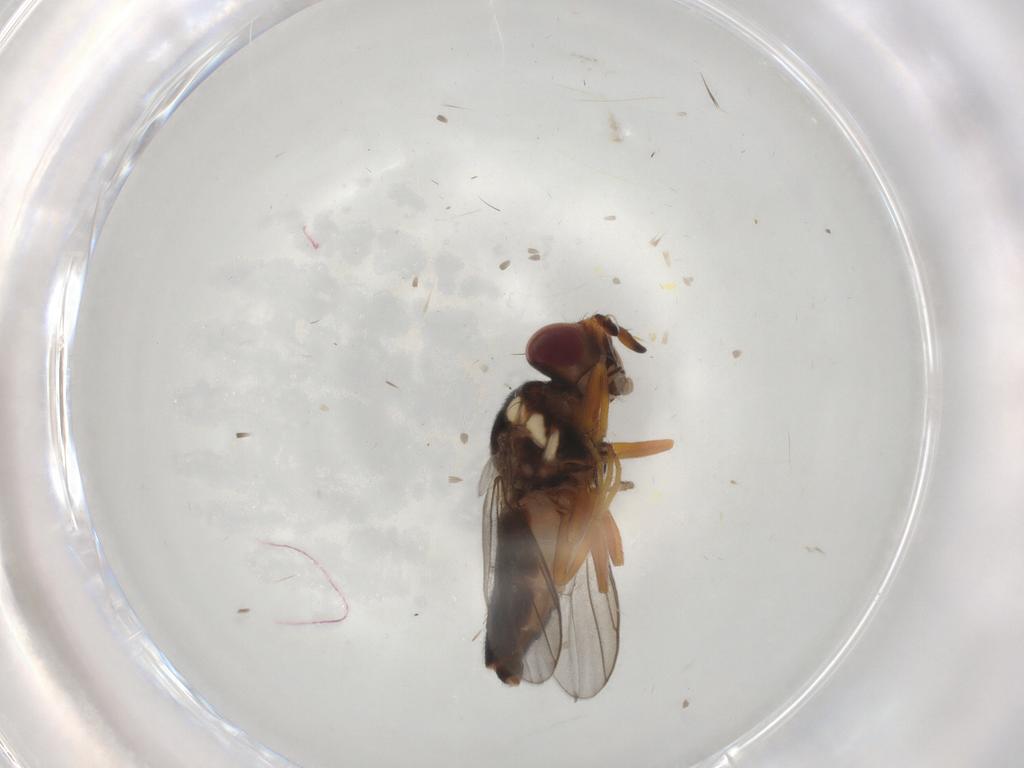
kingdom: Animalia
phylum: Arthropoda
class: Insecta
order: Diptera
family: Chloropidae
